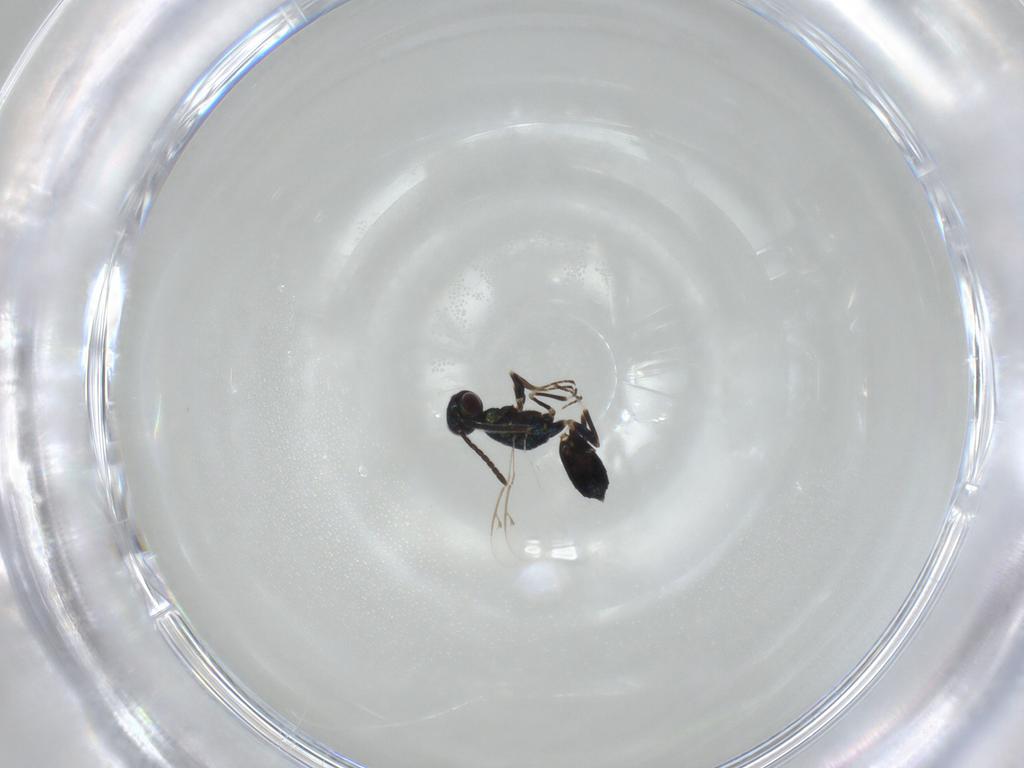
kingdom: Animalia
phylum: Arthropoda
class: Insecta
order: Hymenoptera
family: Eupelmidae
